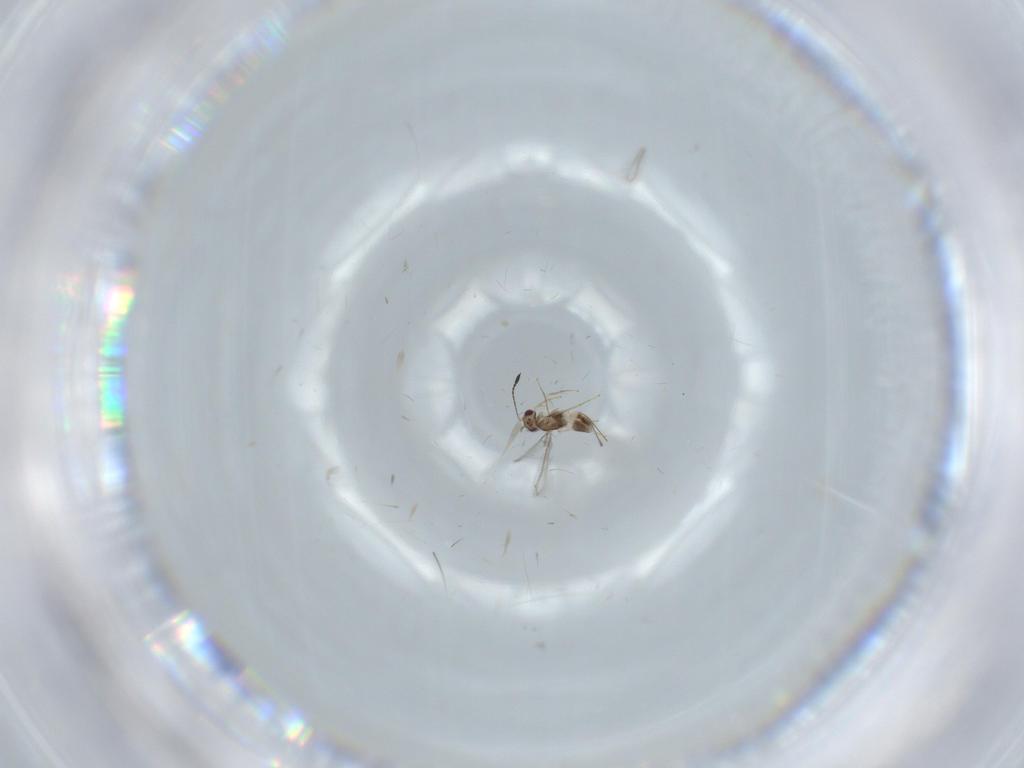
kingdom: Animalia
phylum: Arthropoda
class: Insecta
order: Hymenoptera
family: Mymaridae
